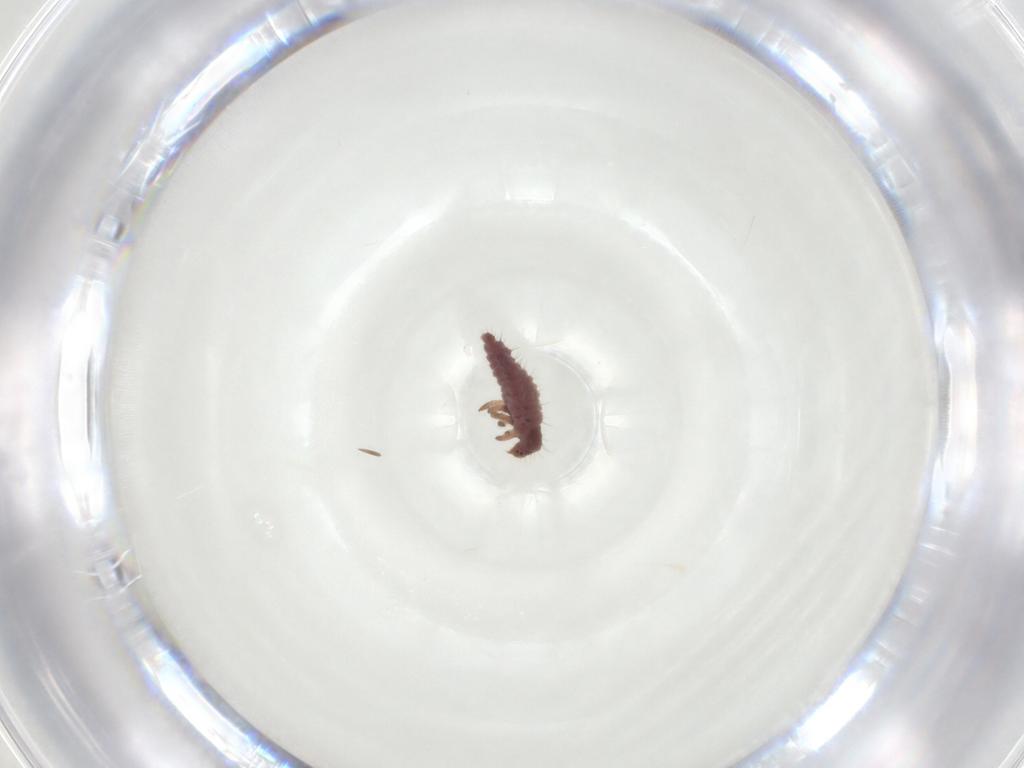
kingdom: Animalia
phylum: Arthropoda
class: Insecta
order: Coleoptera
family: Coccinellidae
